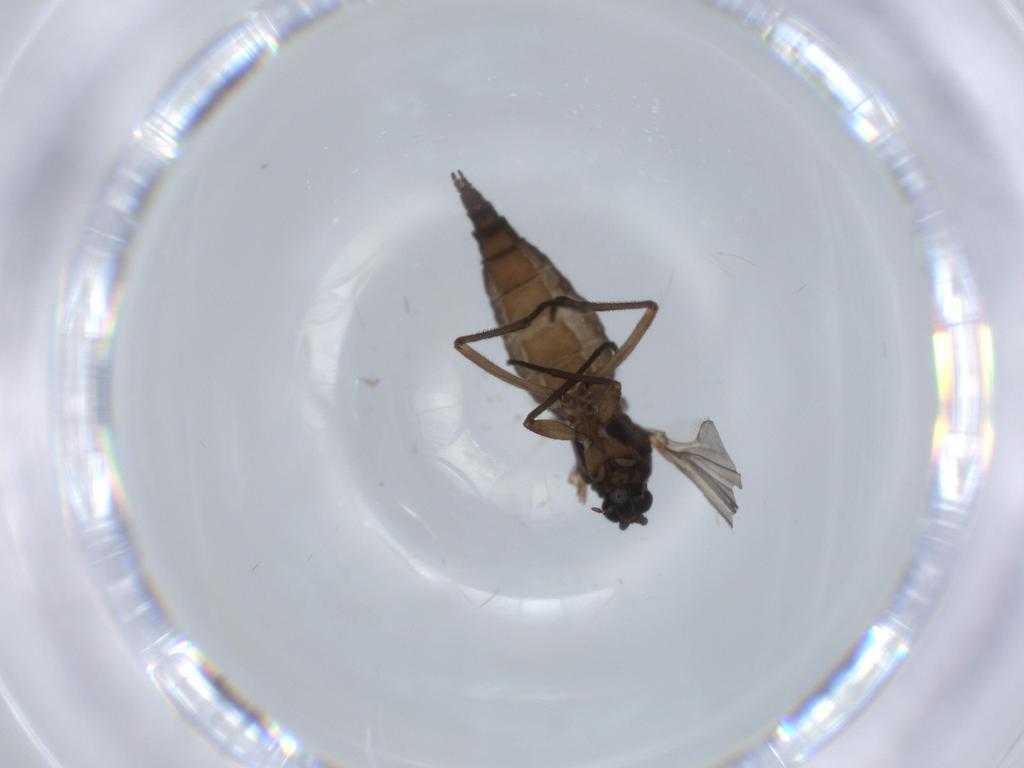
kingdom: Animalia
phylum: Arthropoda
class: Insecta
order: Diptera
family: Sciaridae
